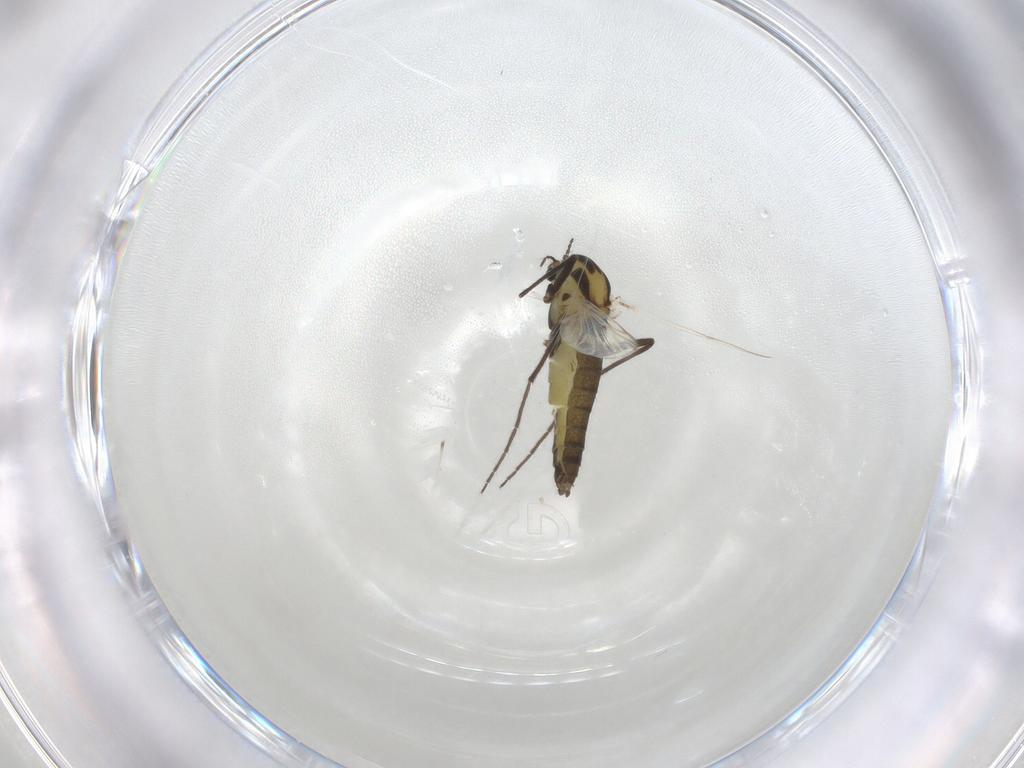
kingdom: Animalia
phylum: Arthropoda
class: Insecta
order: Diptera
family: Chironomidae
